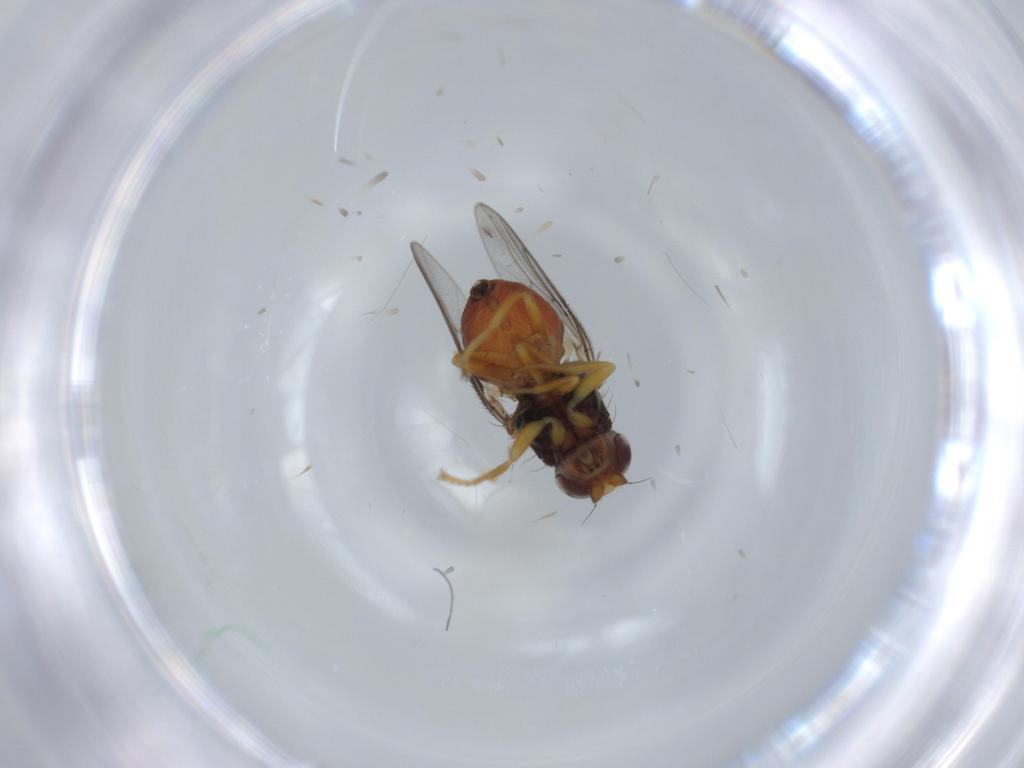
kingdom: Animalia
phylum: Arthropoda
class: Insecta
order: Diptera
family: Chloropidae
